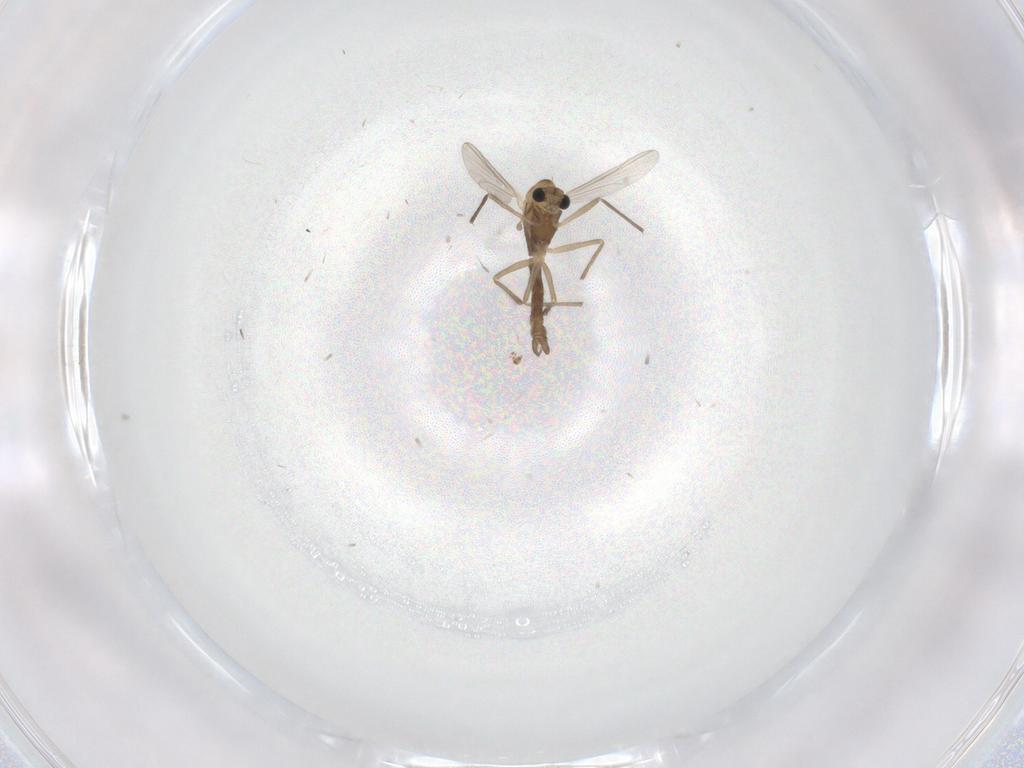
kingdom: Animalia
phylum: Arthropoda
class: Insecta
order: Diptera
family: Chironomidae
